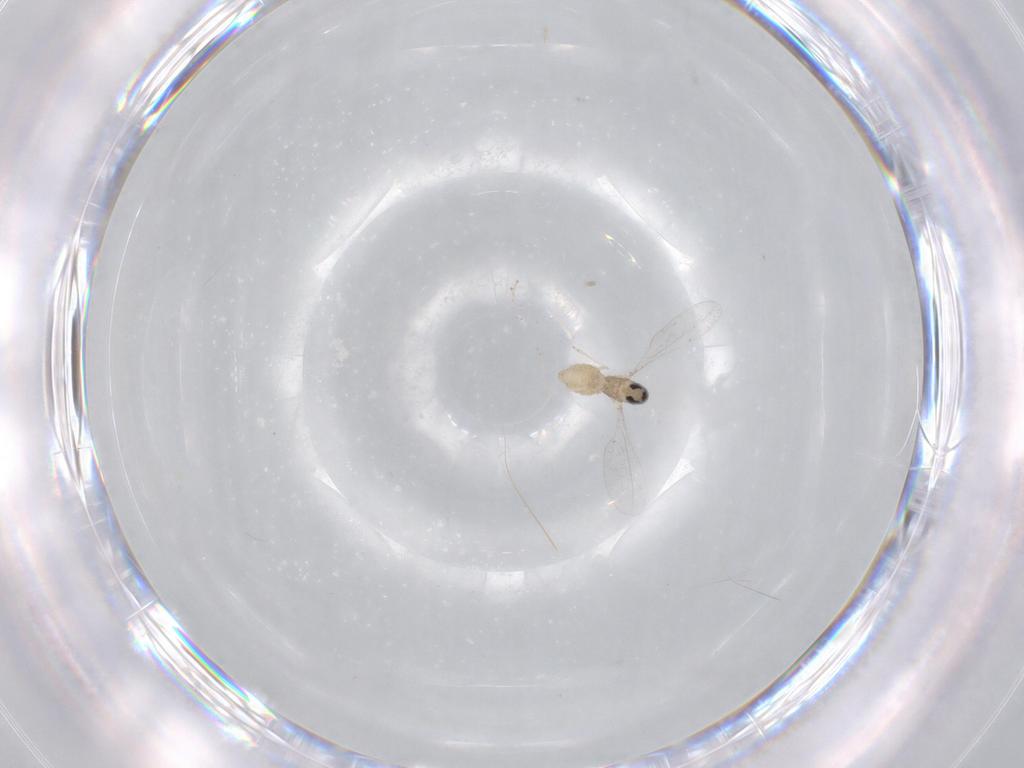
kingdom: Animalia
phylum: Arthropoda
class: Insecta
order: Diptera
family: Cecidomyiidae
